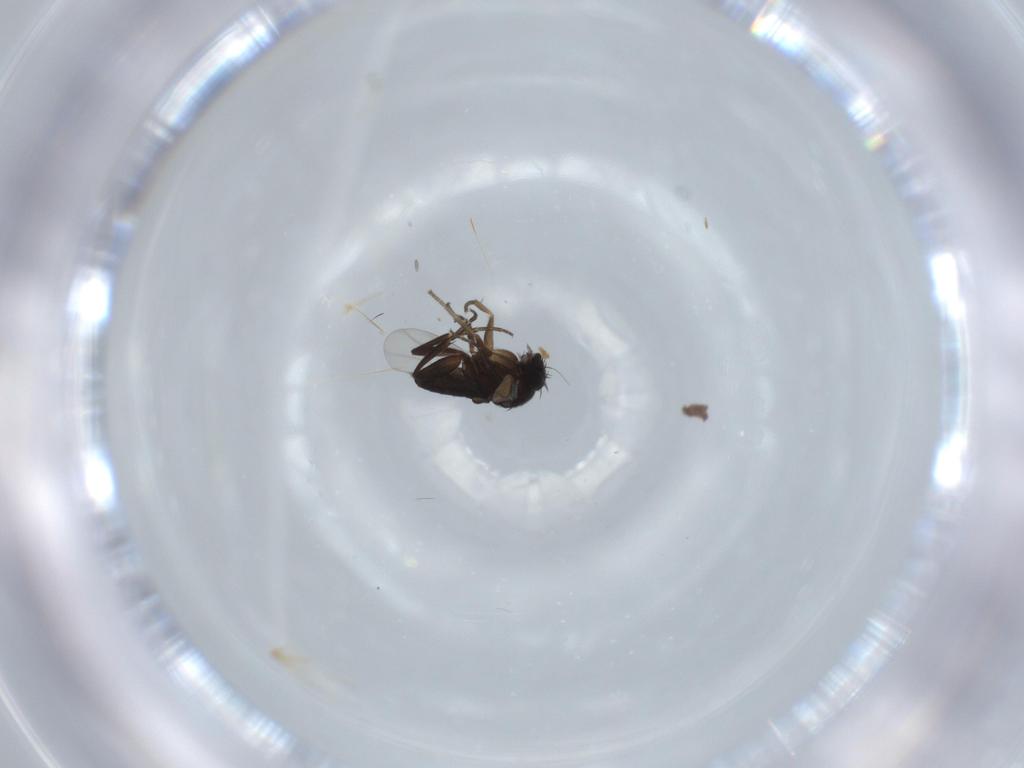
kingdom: Animalia
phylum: Arthropoda
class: Insecta
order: Diptera
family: Phoridae
